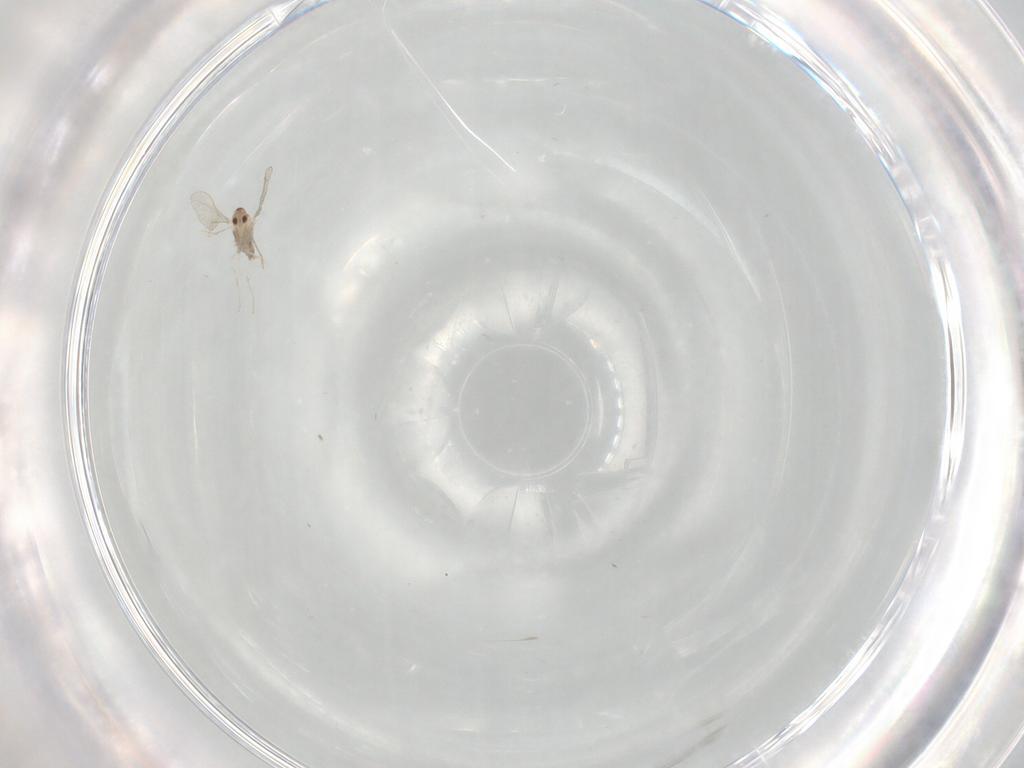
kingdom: Animalia
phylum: Arthropoda
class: Insecta
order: Diptera
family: Cecidomyiidae
